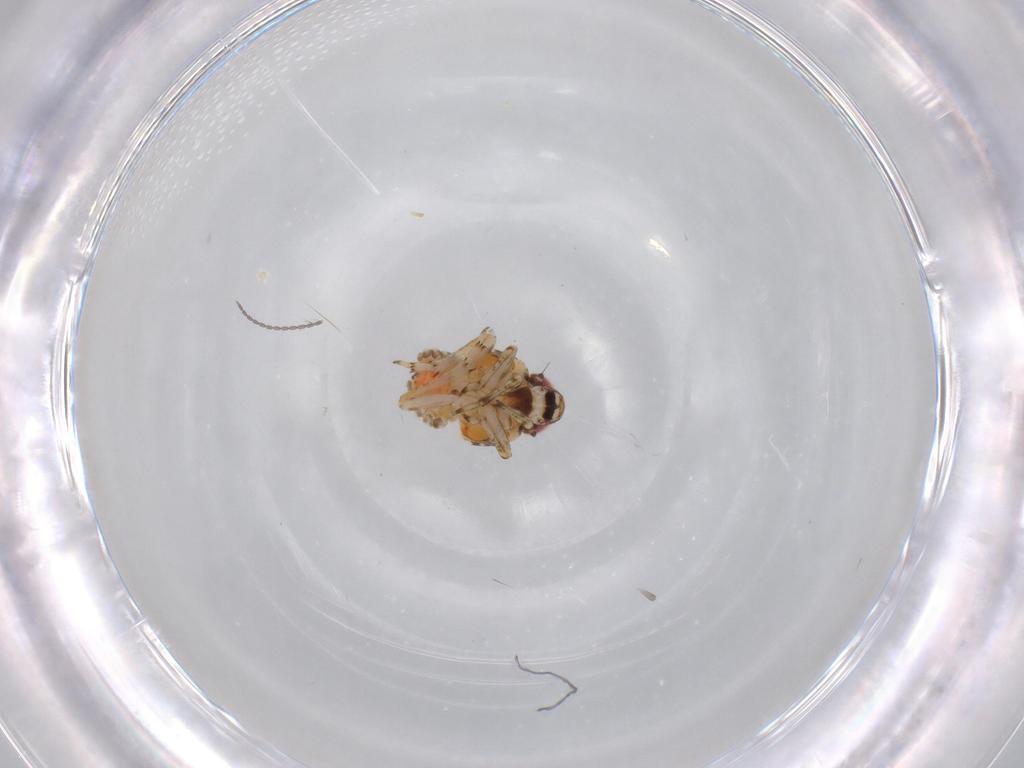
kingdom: Animalia
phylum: Arthropoda
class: Insecta
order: Hemiptera
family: Issidae
